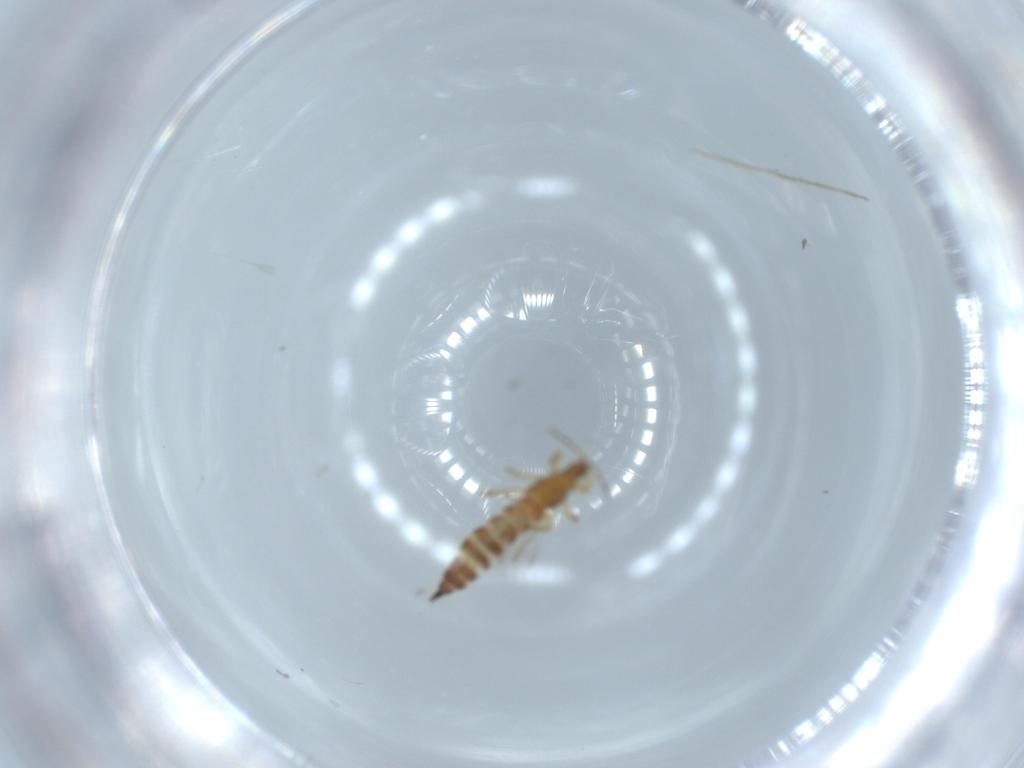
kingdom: Animalia
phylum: Arthropoda
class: Insecta
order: Thysanoptera
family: Phlaeothripidae
